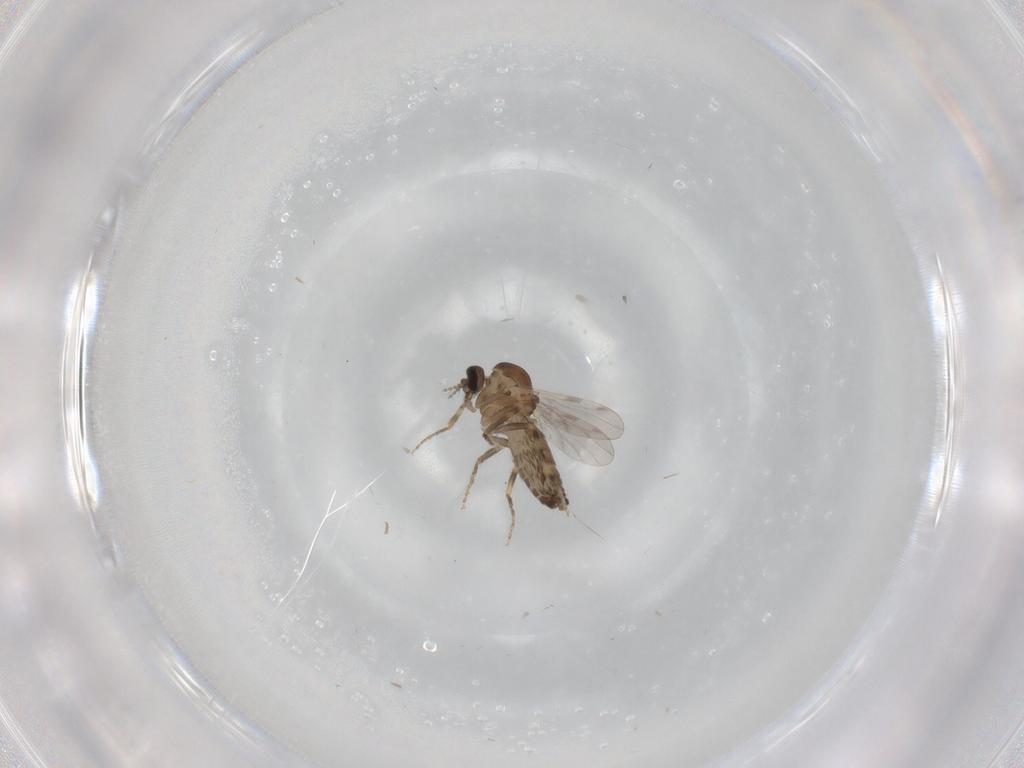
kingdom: Animalia
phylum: Arthropoda
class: Insecta
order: Diptera
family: Ceratopogonidae
